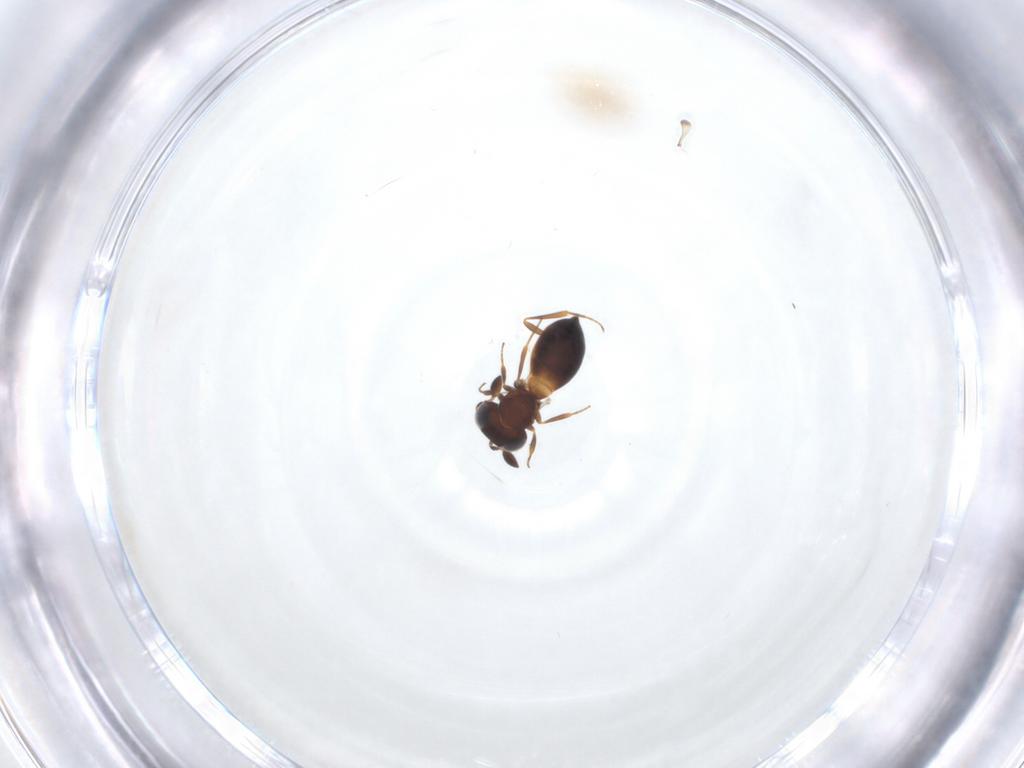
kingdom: Animalia
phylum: Arthropoda
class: Insecta
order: Hymenoptera
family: Scelionidae
